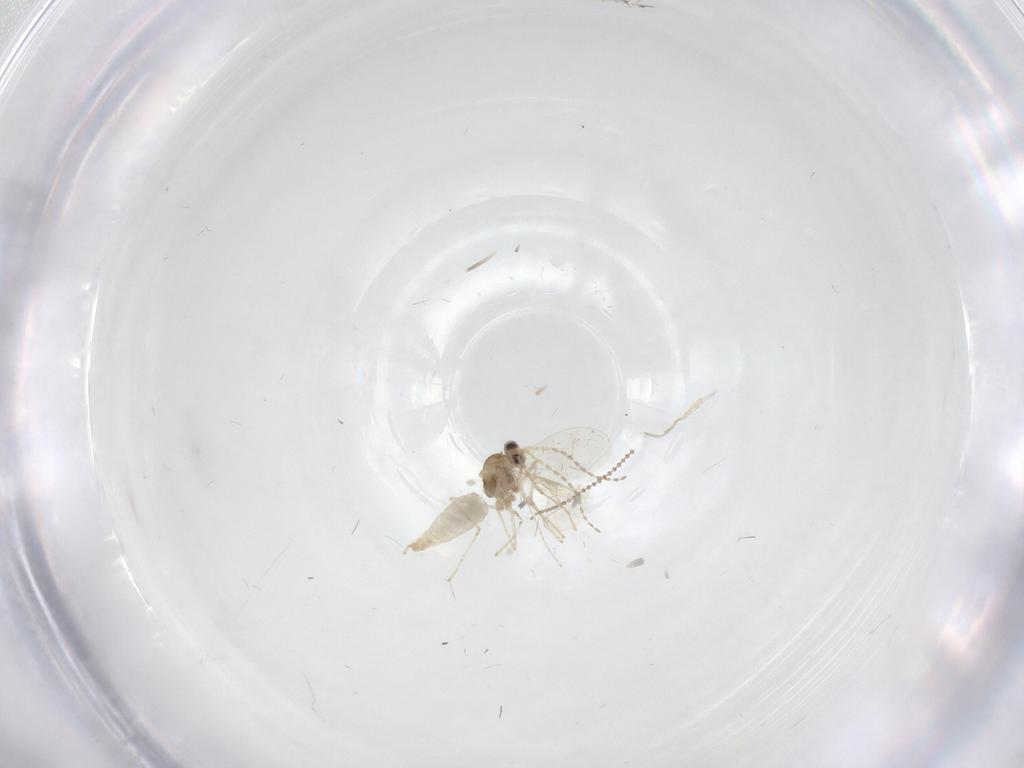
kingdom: Animalia
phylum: Arthropoda
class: Insecta
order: Diptera
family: Cecidomyiidae
